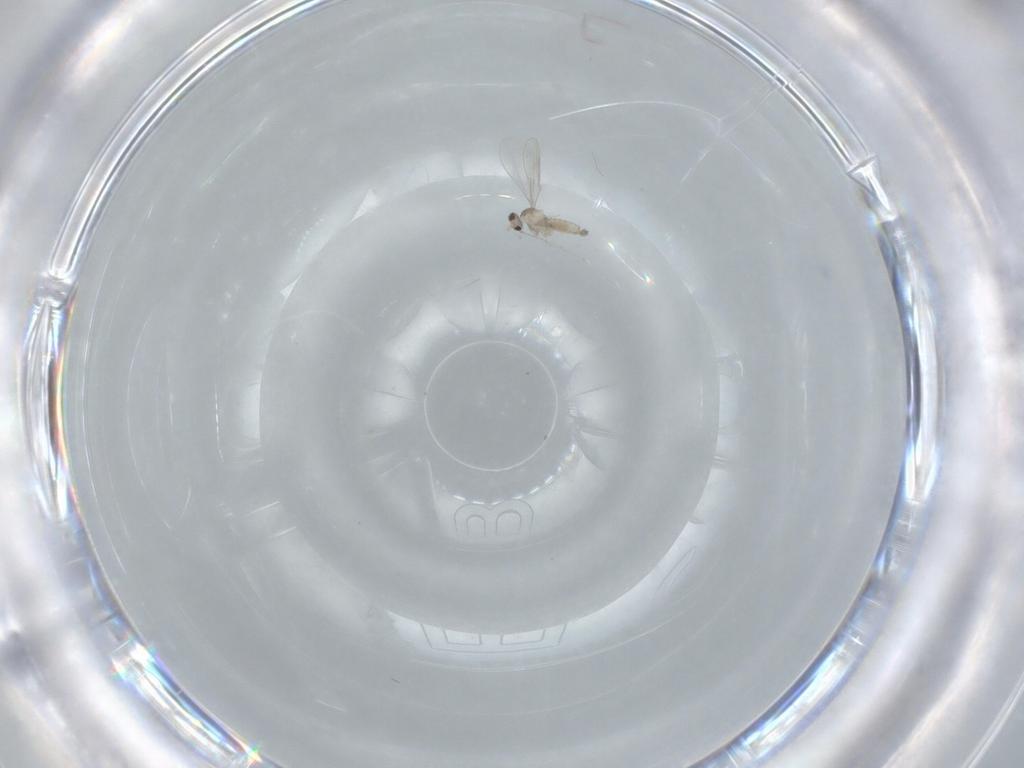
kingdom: Animalia
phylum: Arthropoda
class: Insecta
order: Diptera
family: Cecidomyiidae
